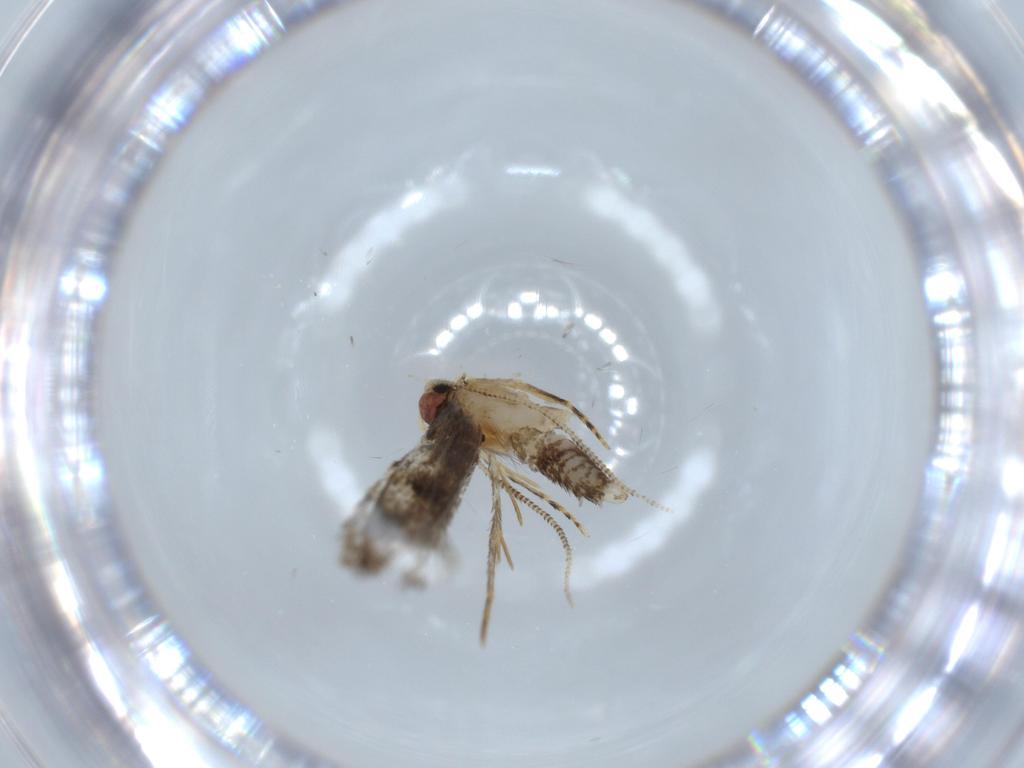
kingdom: Animalia
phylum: Arthropoda
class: Insecta
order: Lepidoptera
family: Tineidae
